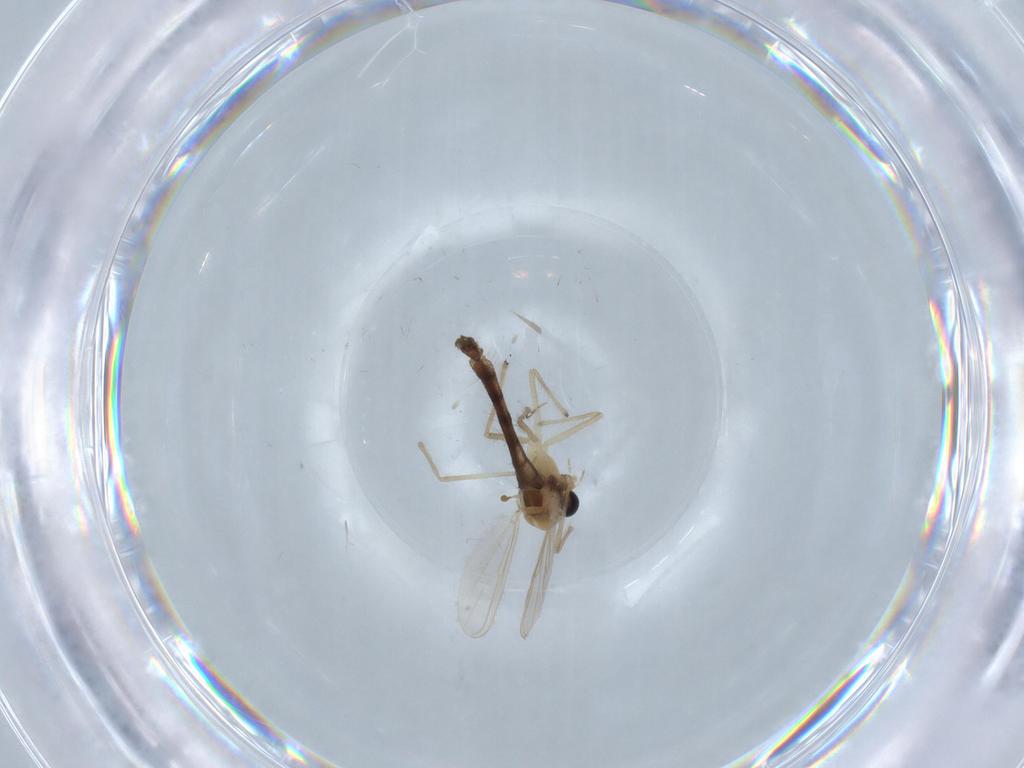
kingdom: Animalia
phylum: Arthropoda
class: Insecta
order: Diptera
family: Chironomidae
